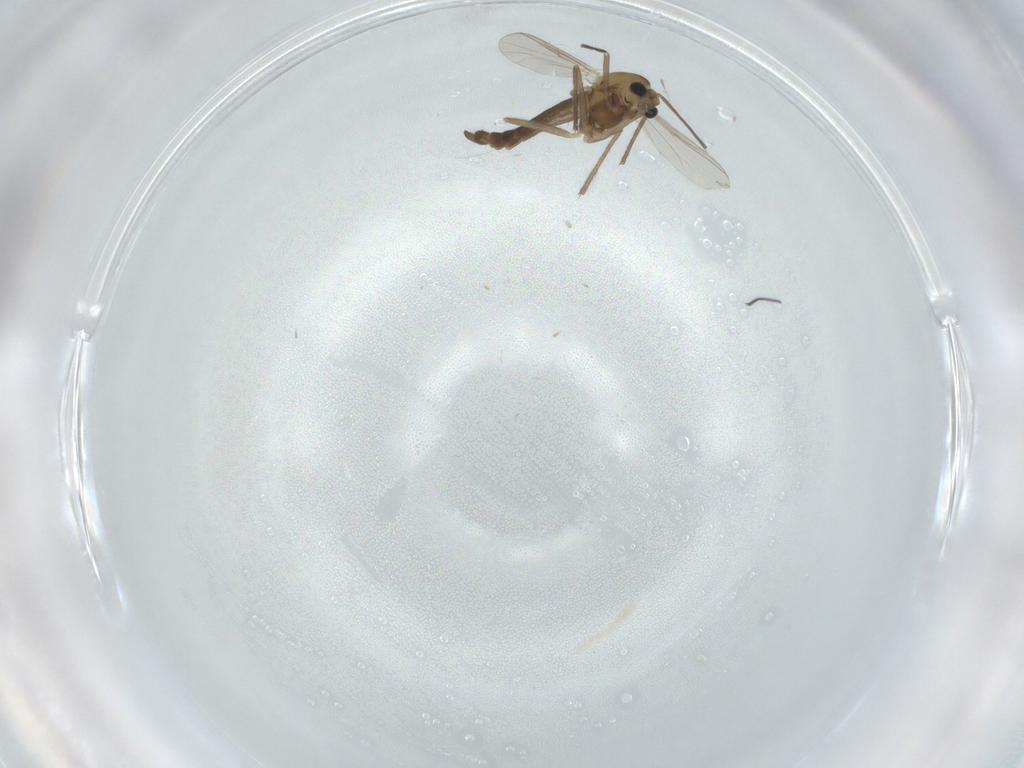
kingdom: Animalia
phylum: Arthropoda
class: Insecta
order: Diptera
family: Chironomidae
